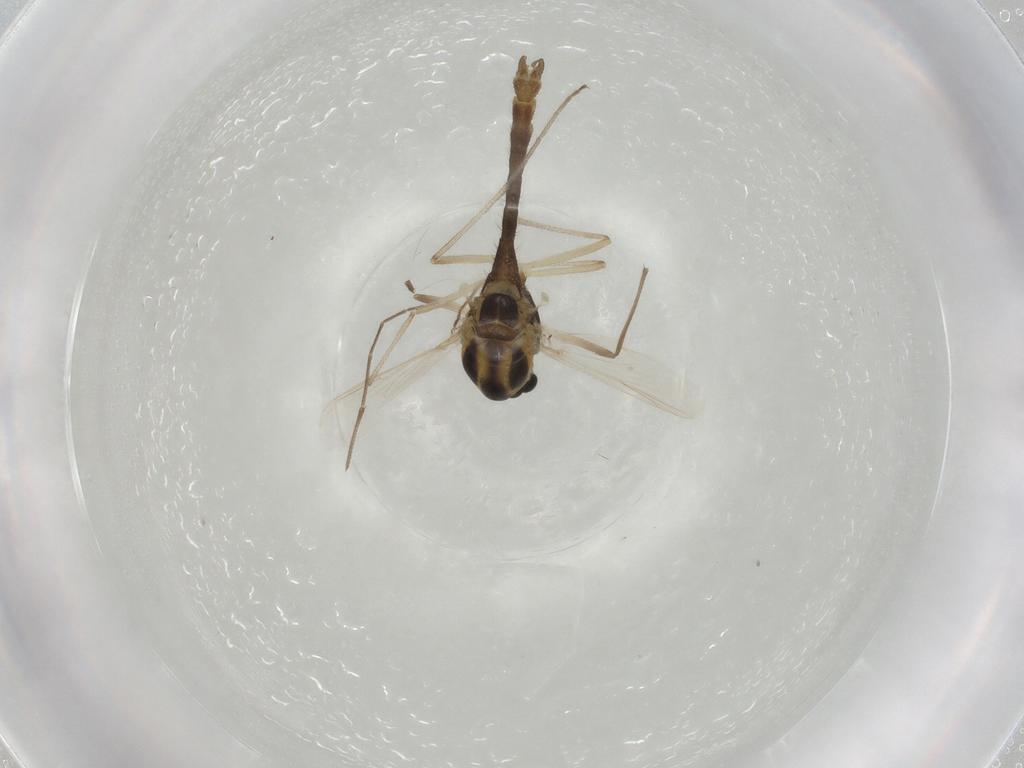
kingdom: Animalia
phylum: Arthropoda
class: Insecta
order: Diptera
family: Chironomidae
